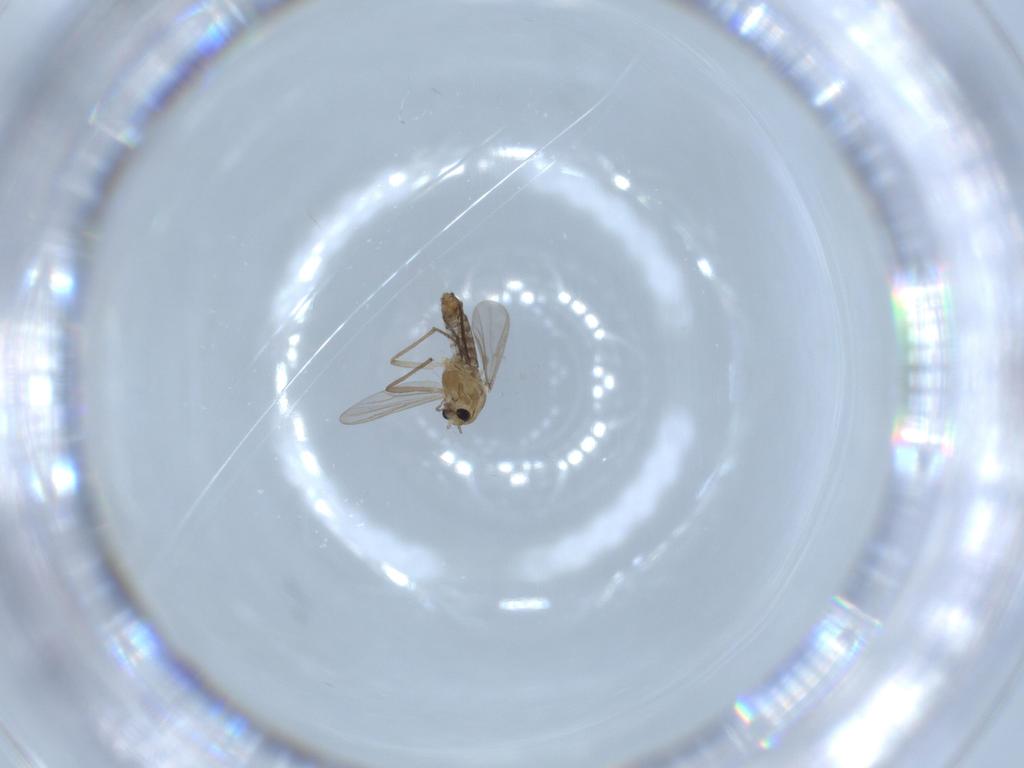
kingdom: Animalia
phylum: Arthropoda
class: Insecta
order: Diptera
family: Chironomidae
